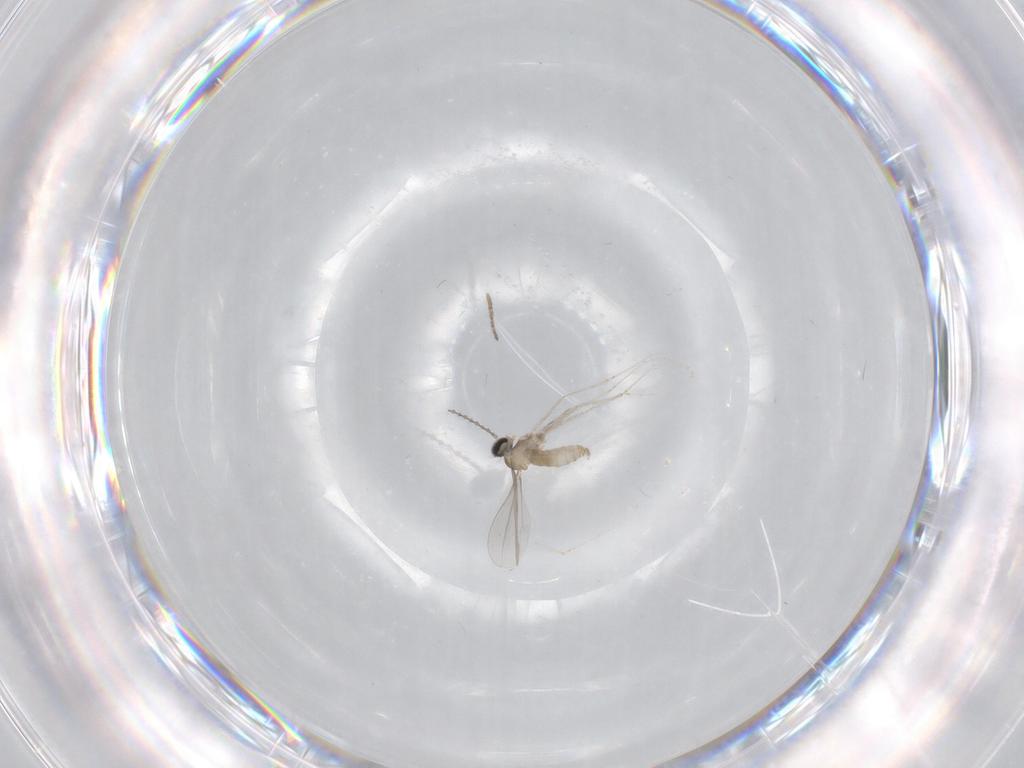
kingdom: Animalia
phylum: Arthropoda
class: Insecta
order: Diptera
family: Cecidomyiidae
